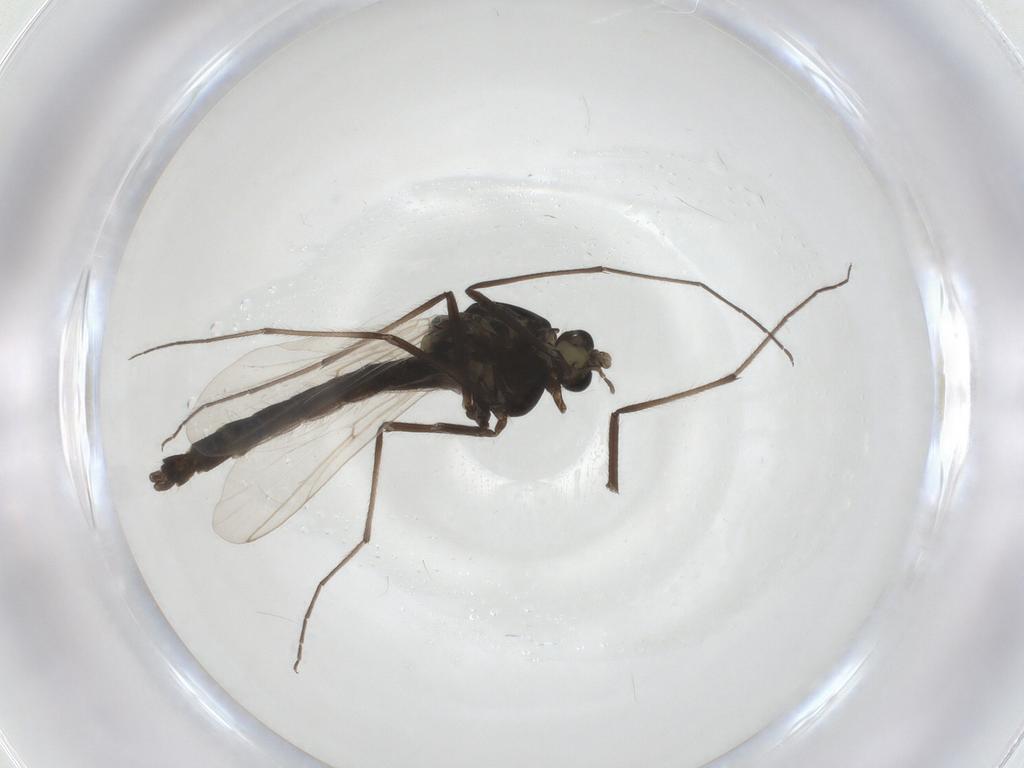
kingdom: Animalia
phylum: Arthropoda
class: Insecta
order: Diptera
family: Chironomidae
